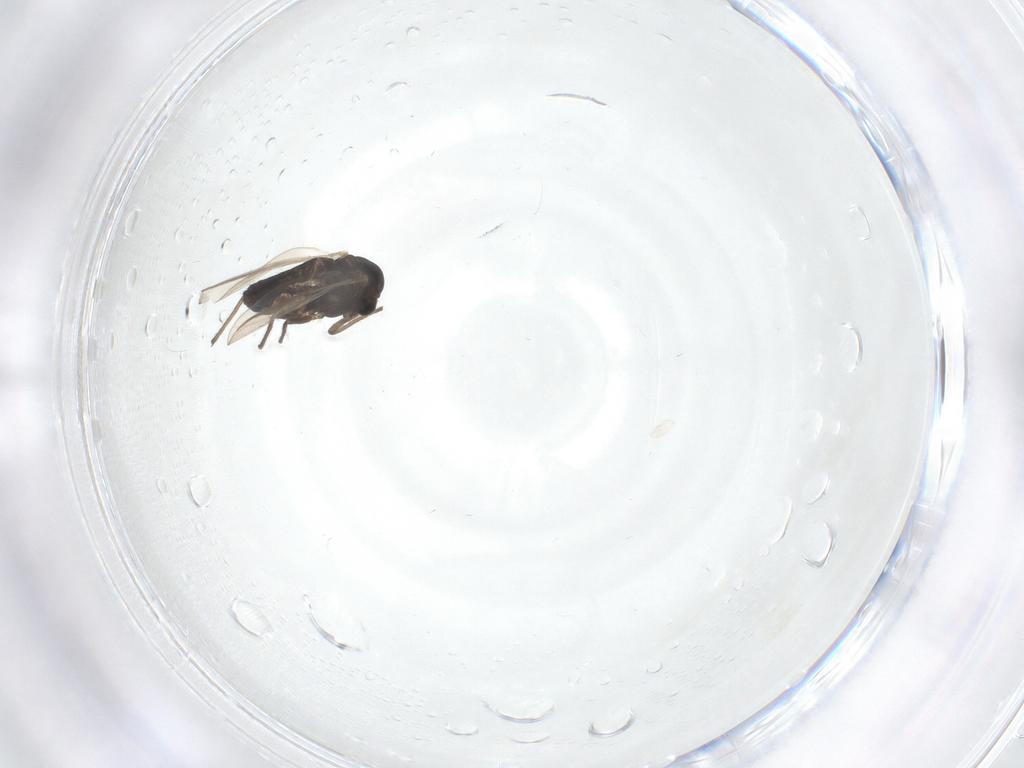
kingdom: Animalia
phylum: Arthropoda
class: Insecta
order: Diptera
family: Chironomidae
